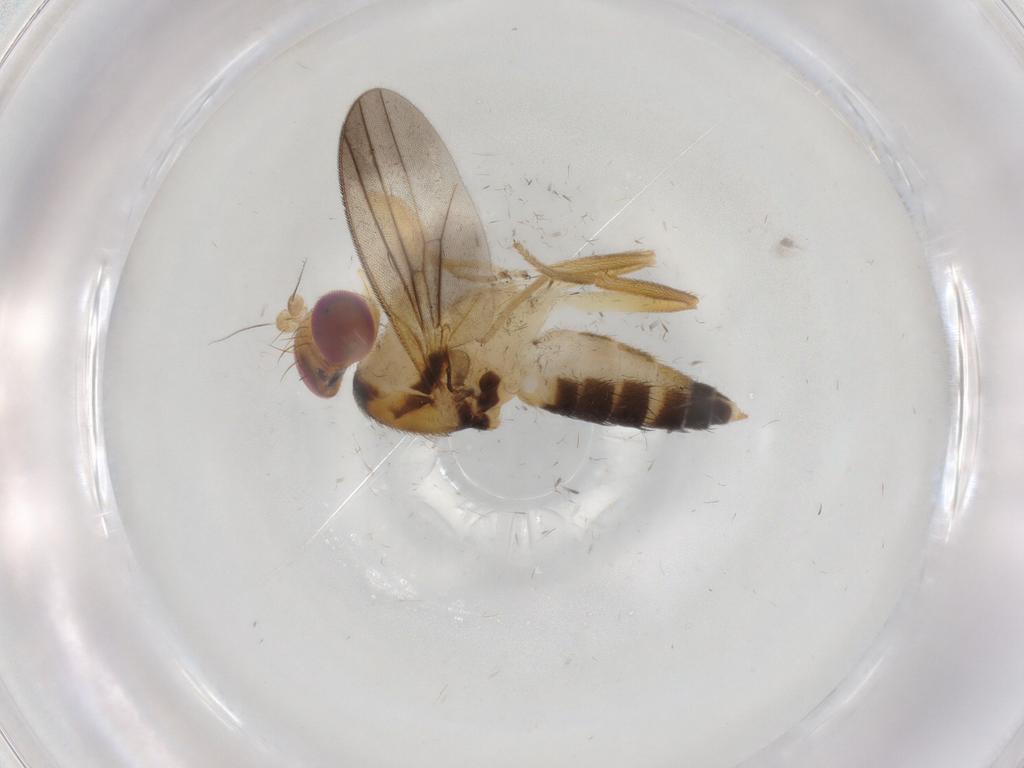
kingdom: Animalia
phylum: Arthropoda
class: Insecta
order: Diptera
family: Clusiidae
